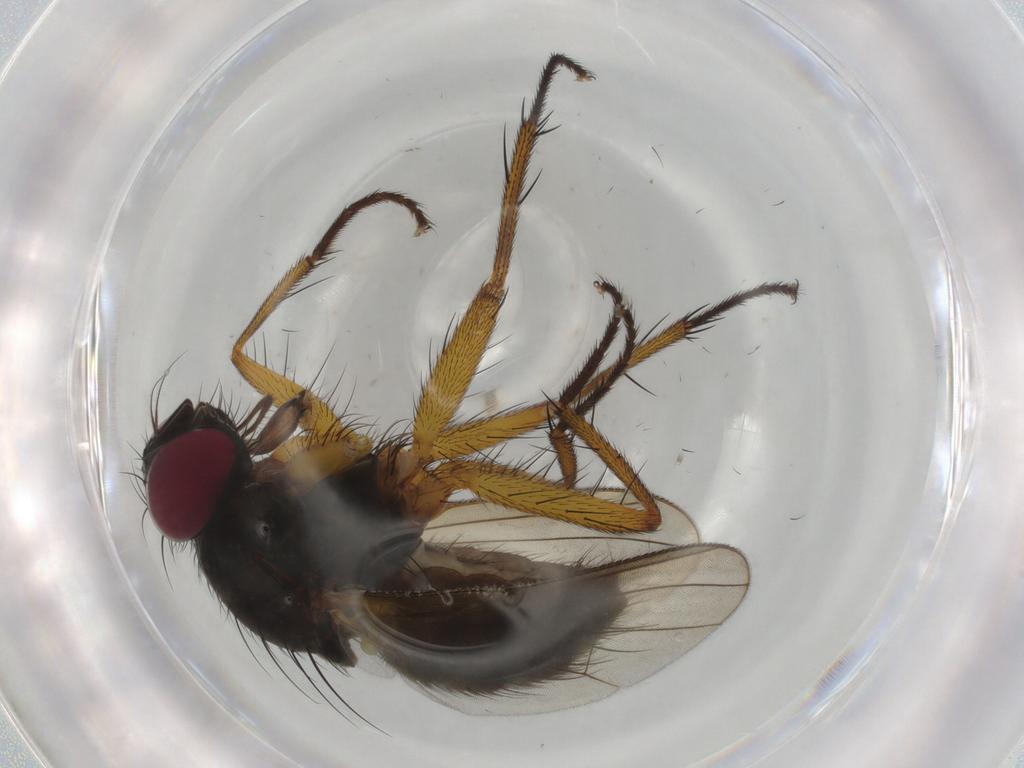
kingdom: Animalia
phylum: Arthropoda
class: Insecta
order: Diptera
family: Muscidae
